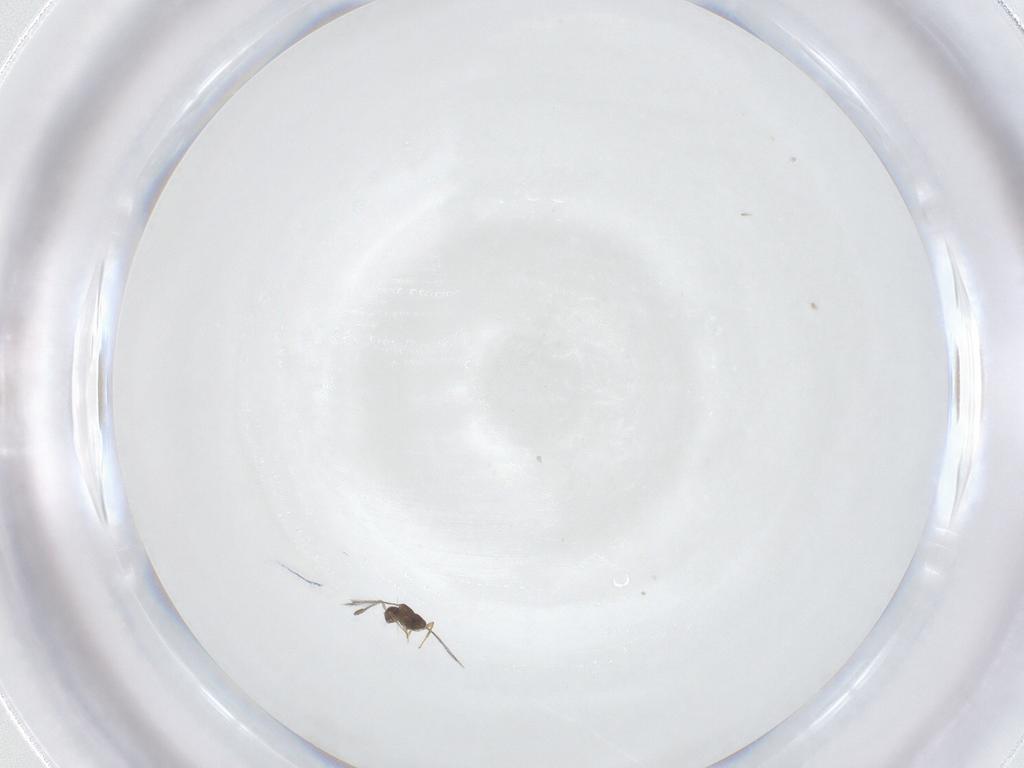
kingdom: Animalia
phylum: Arthropoda
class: Insecta
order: Hymenoptera
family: Mymaridae
